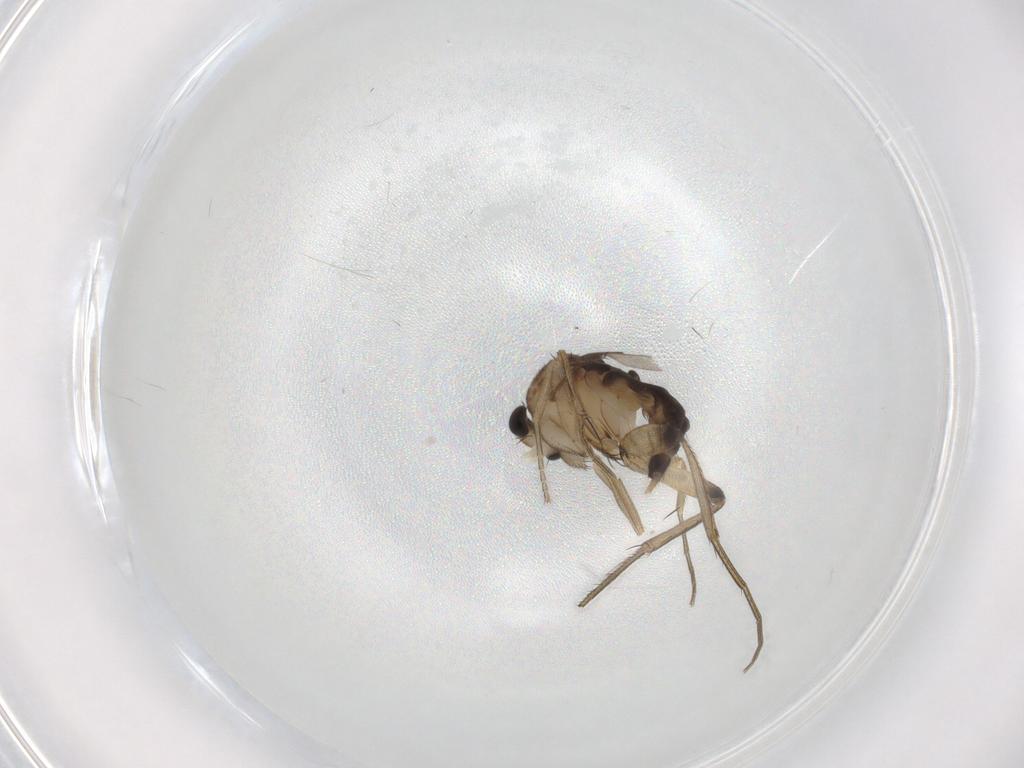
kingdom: Animalia
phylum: Arthropoda
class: Insecta
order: Diptera
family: Phoridae
